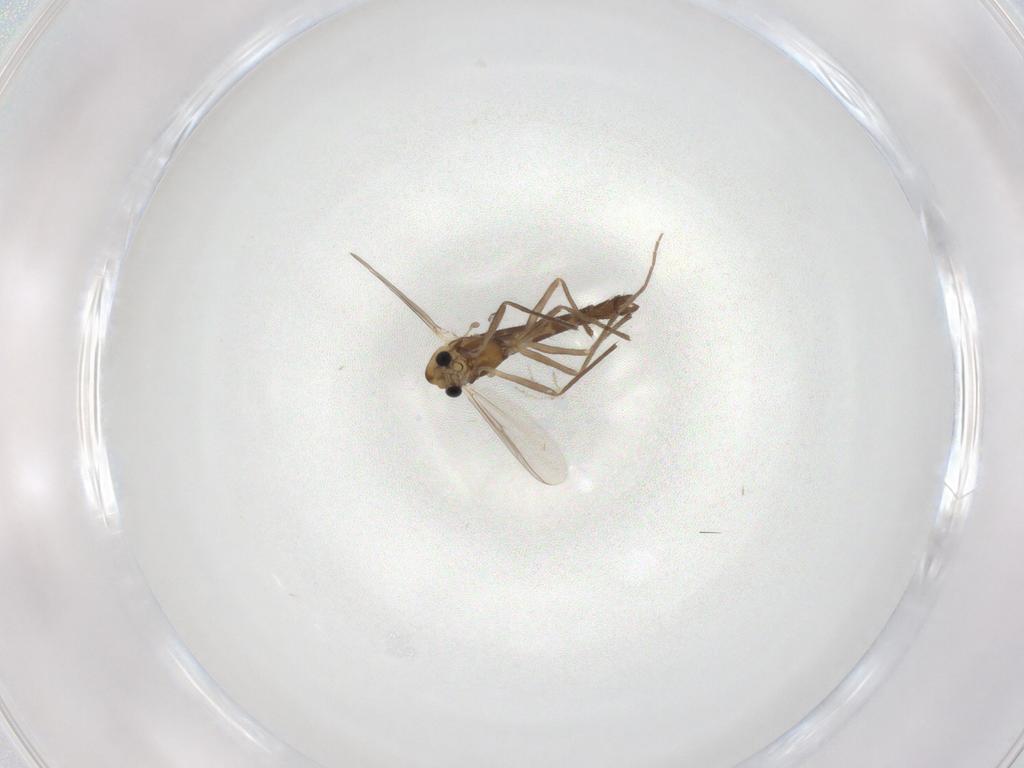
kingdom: Animalia
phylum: Arthropoda
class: Insecta
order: Diptera
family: Chironomidae
